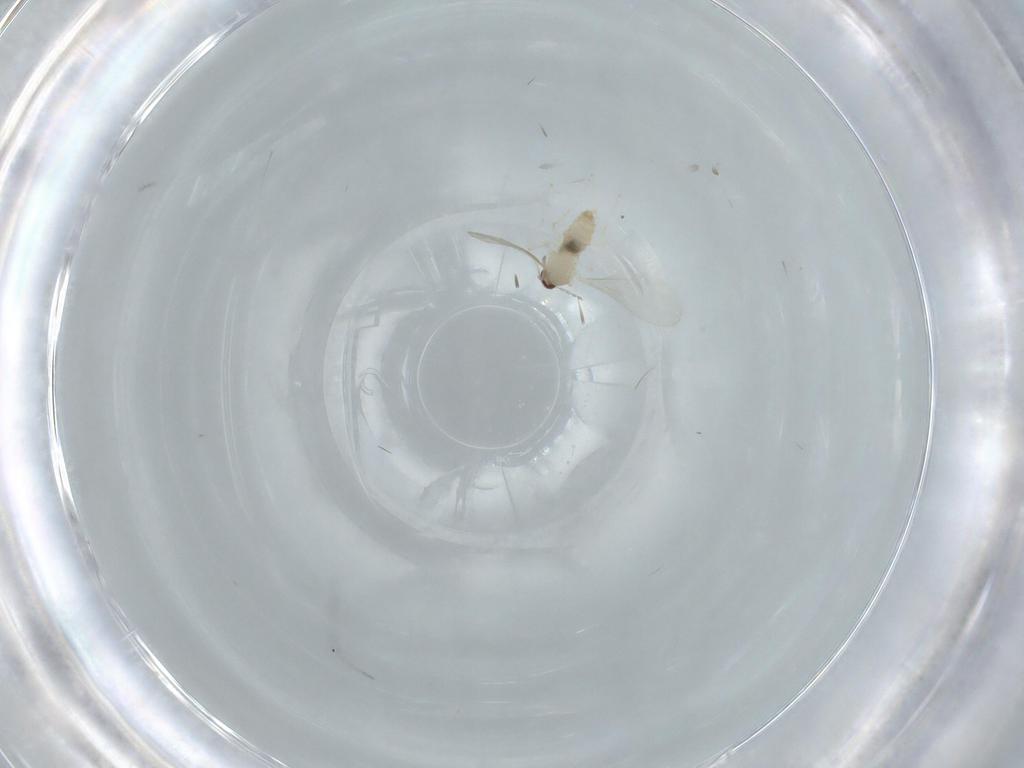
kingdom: Animalia
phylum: Arthropoda
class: Insecta
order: Diptera
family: Cecidomyiidae
